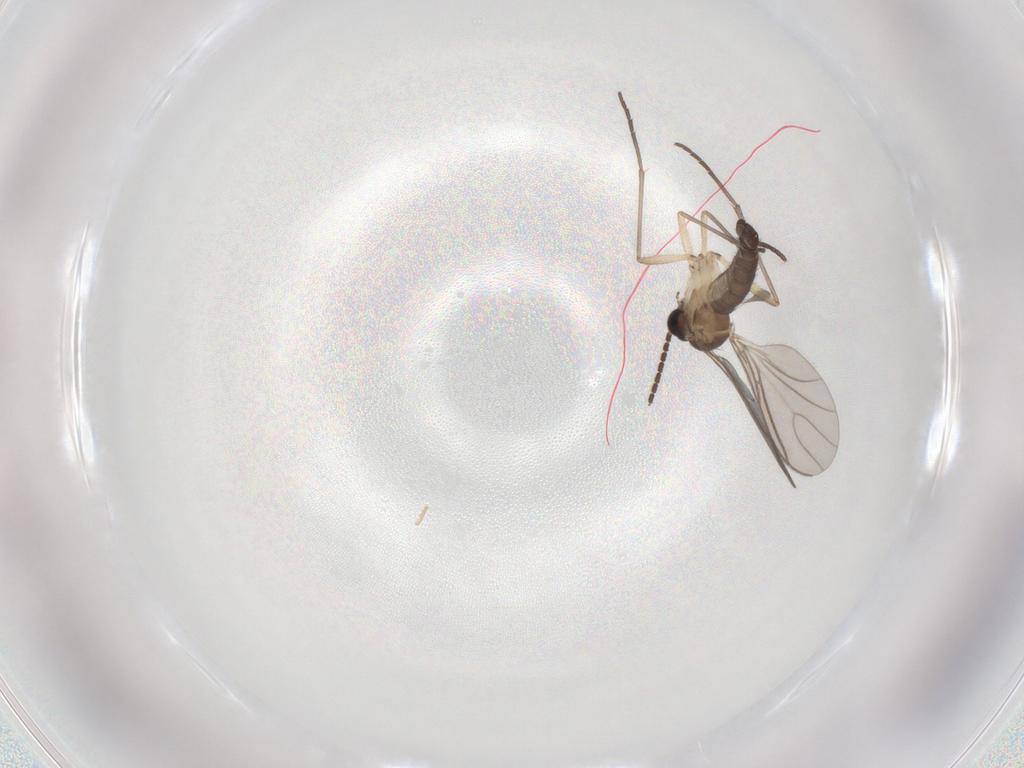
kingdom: Animalia
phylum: Arthropoda
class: Insecta
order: Diptera
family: Sciaridae
